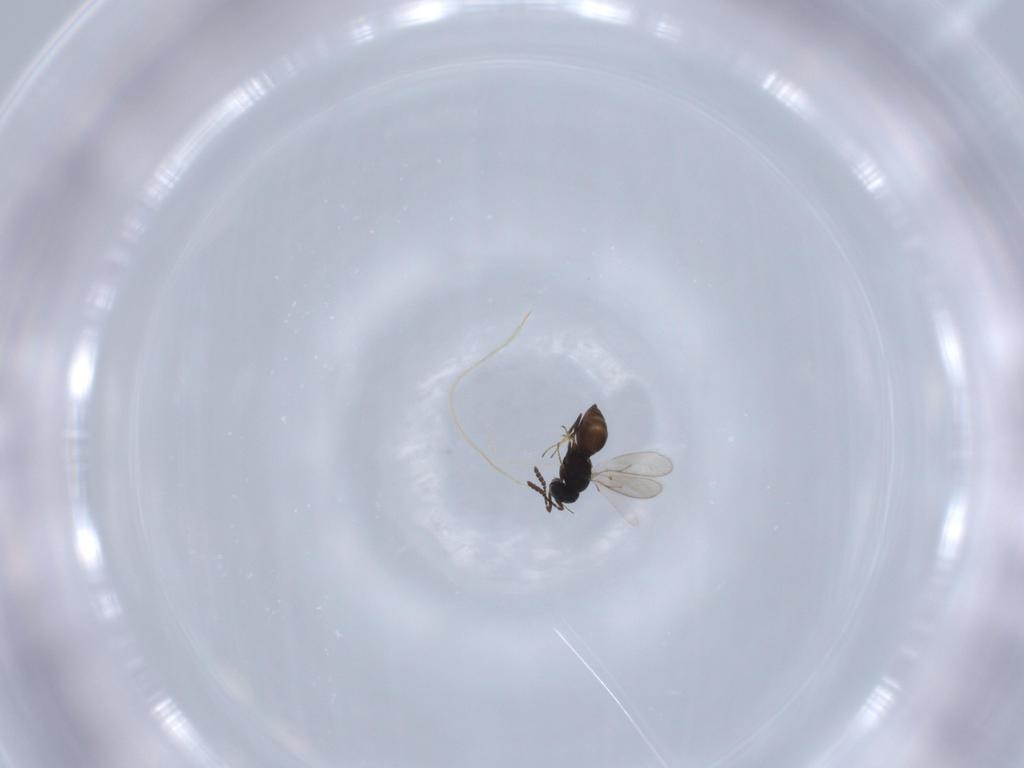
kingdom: Animalia
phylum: Arthropoda
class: Insecta
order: Hymenoptera
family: Scelionidae
